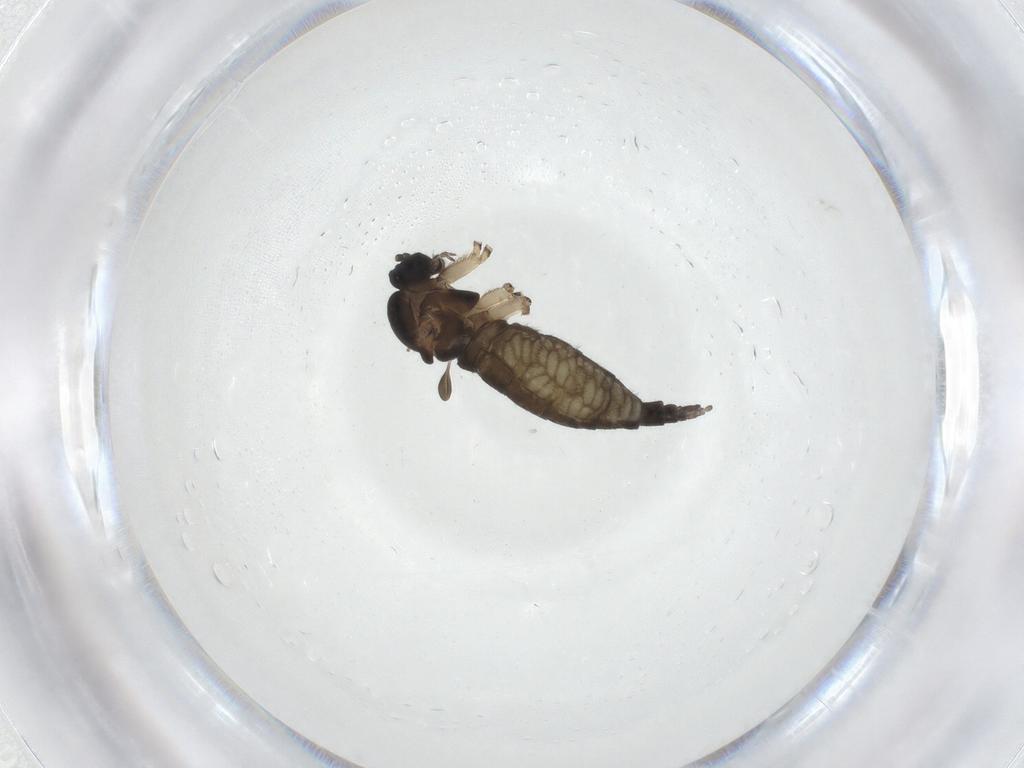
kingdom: Animalia
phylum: Arthropoda
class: Insecta
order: Diptera
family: Sciaridae
